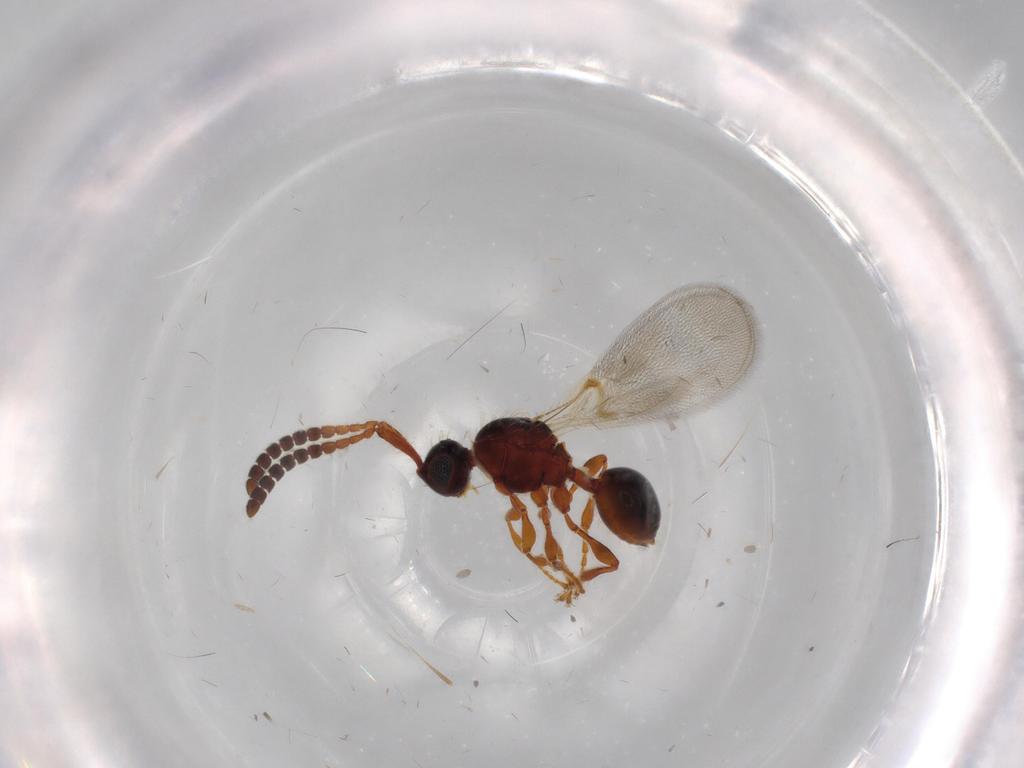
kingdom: Animalia
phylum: Arthropoda
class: Insecta
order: Hymenoptera
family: Diapriidae
